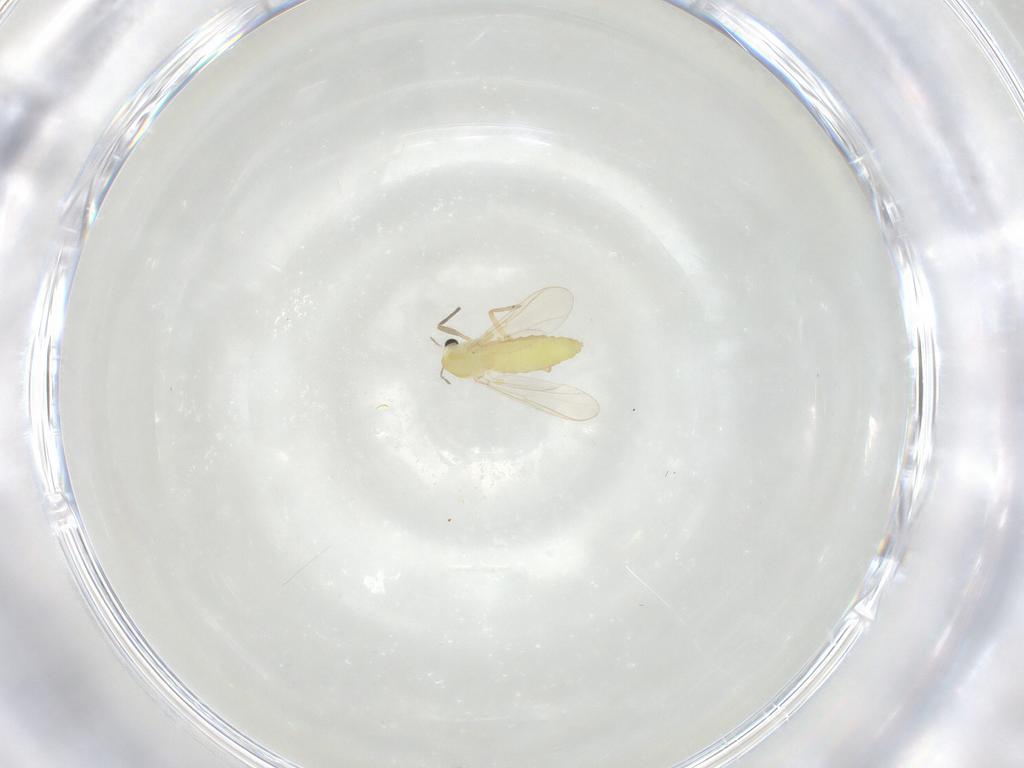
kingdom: Animalia
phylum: Arthropoda
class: Insecta
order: Diptera
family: Chironomidae
